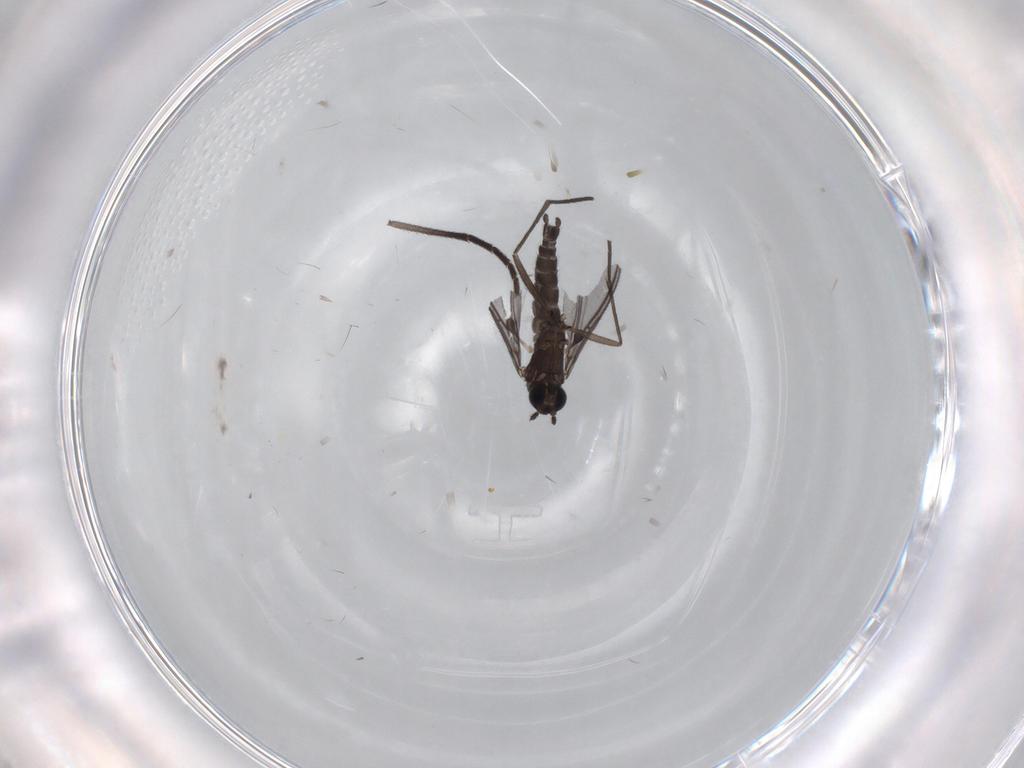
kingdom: Animalia
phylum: Arthropoda
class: Insecta
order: Diptera
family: Sciaridae
